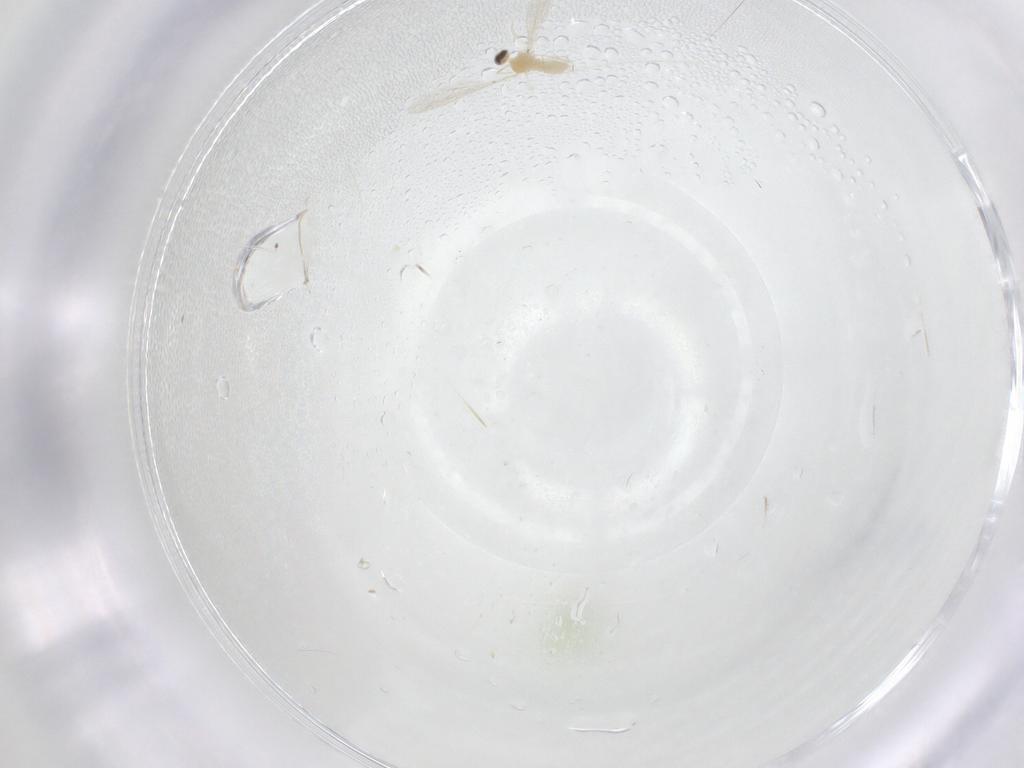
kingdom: Animalia
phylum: Arthropoda
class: Insecta
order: Diptera
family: Cecidomyiidae
